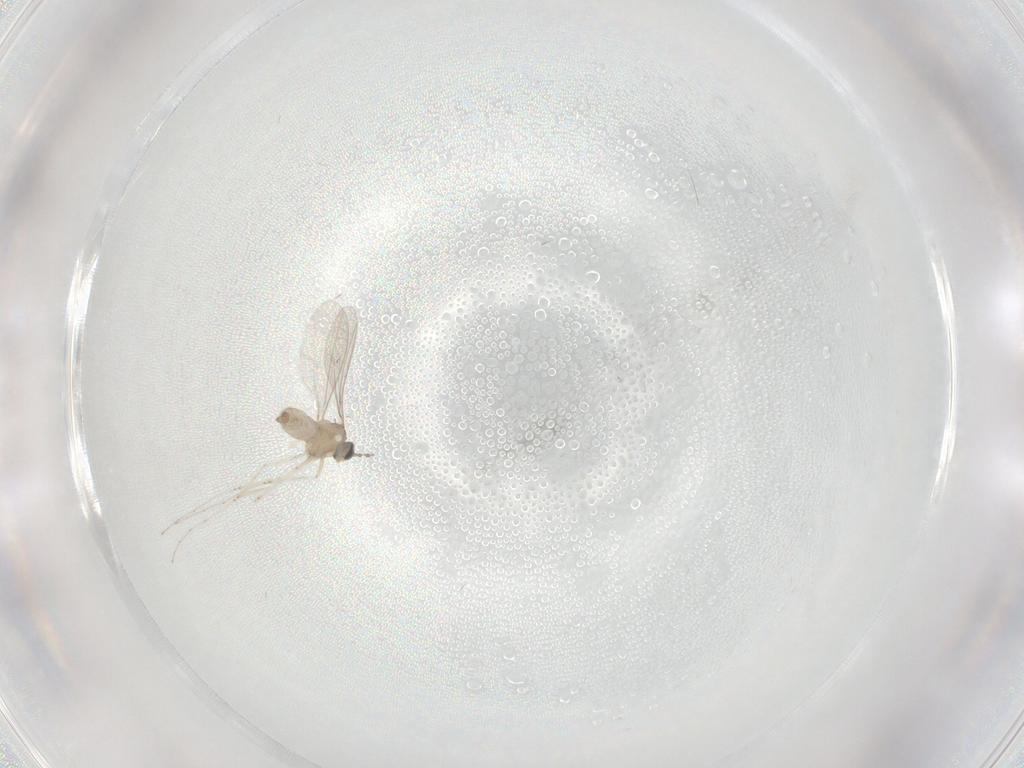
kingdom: Animalia
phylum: Arthropoda
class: Insecta
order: Diptera
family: Cecidomyiidae
